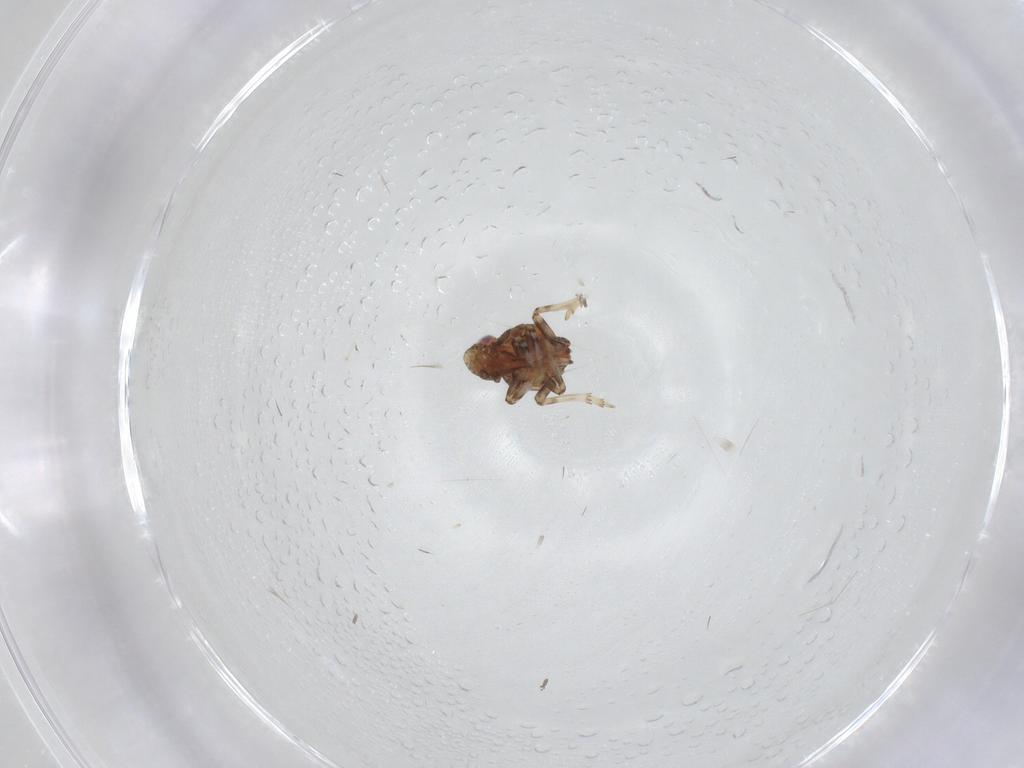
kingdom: Animalia
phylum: Arthropoda
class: Insecta
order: Hemiptera
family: Issidae
